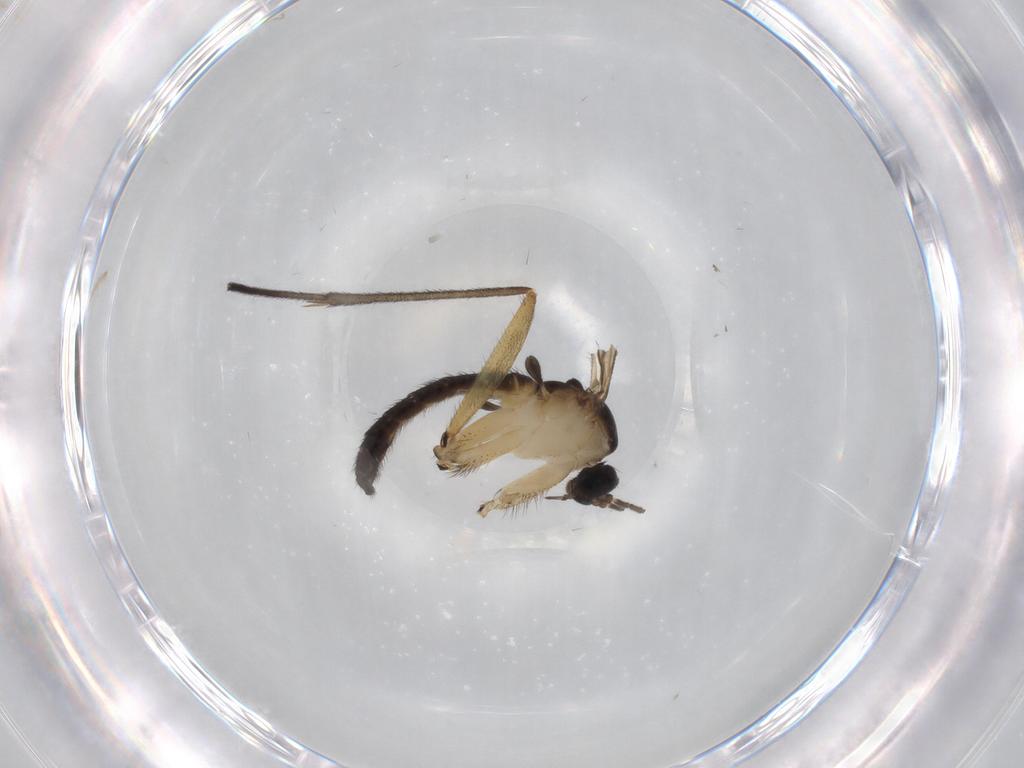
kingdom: Animalia
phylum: Arthropoda
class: Insecta
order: Diptera
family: Sciaridae
